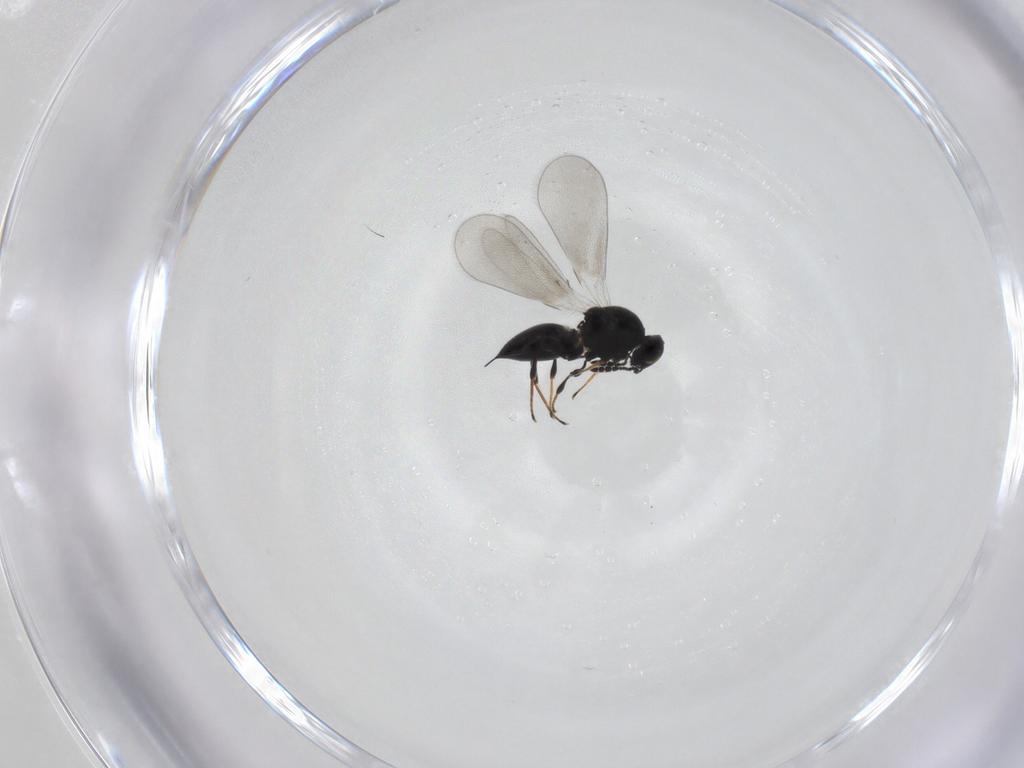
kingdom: Animalia
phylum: Arthropoda
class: Insecta
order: Hymenoptera
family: Platygastridae
